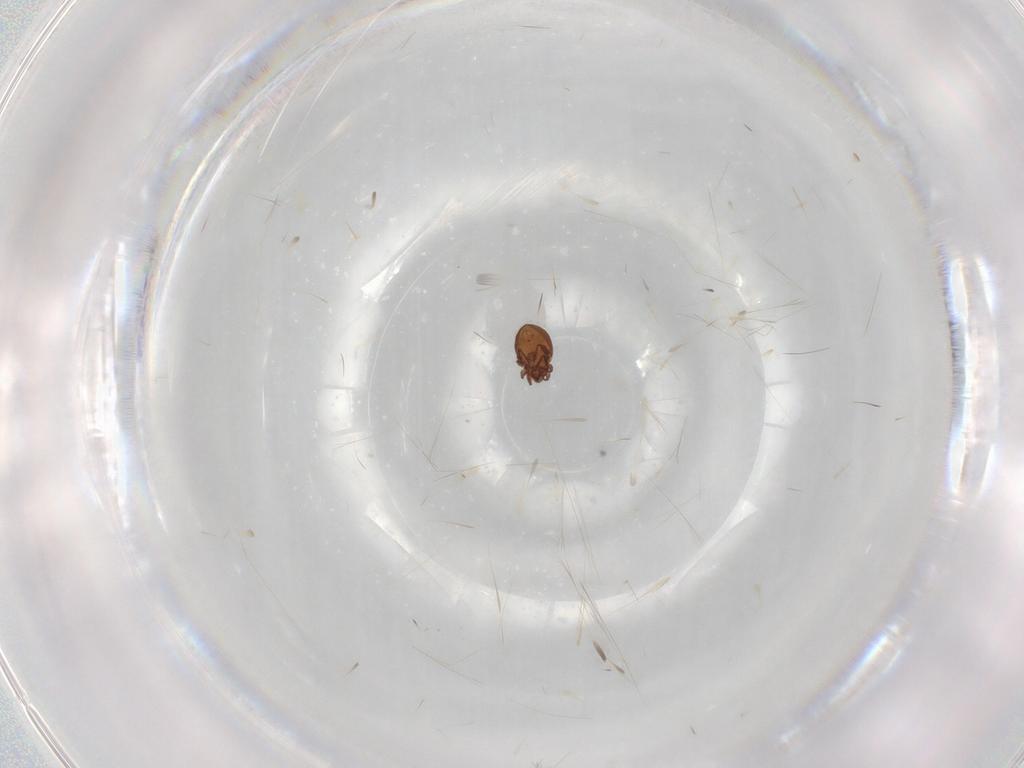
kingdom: Animalia
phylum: Arthropoda
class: Arachnida
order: Sarcoptiformes
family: Scheloribatidae
